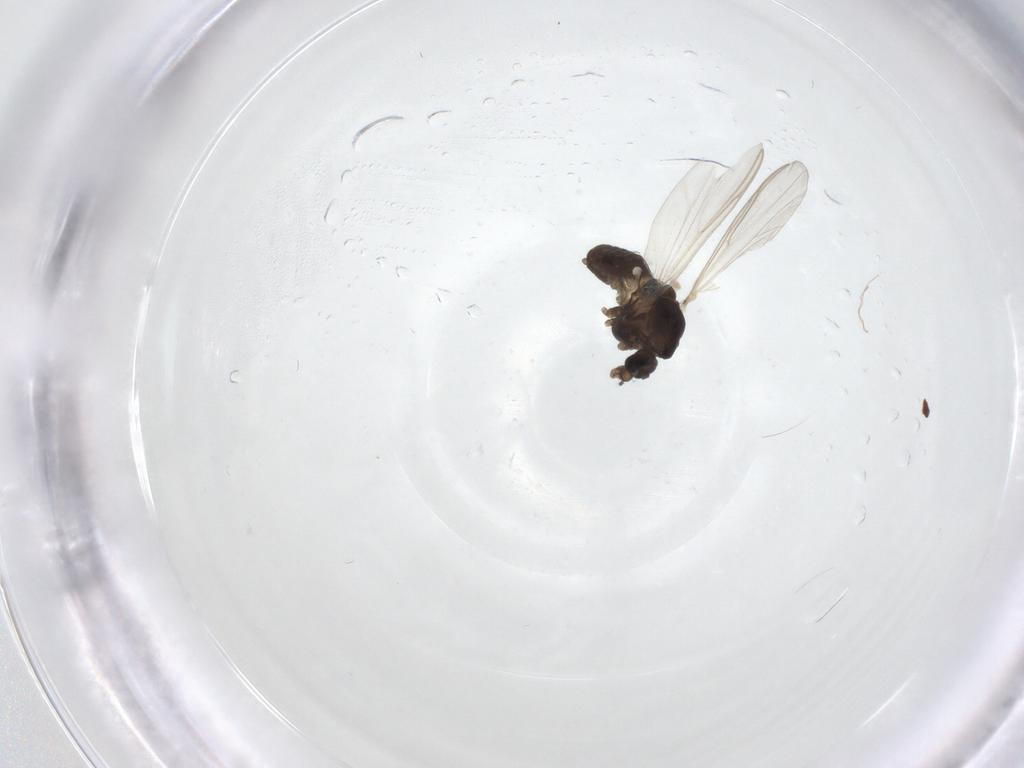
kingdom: Animalia
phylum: Arthropoda
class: Insecta
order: Diptera
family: Chironomidae
